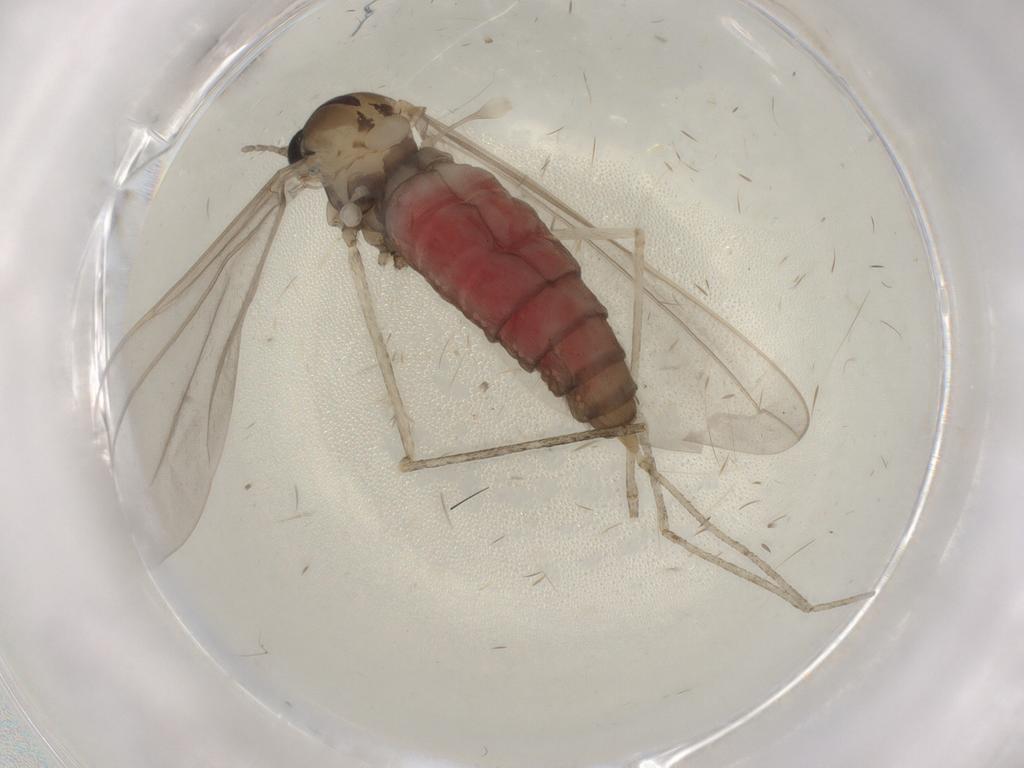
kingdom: Animalia
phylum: Arthropoda
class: Insecta
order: Diptera
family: Cecidomyiidae
